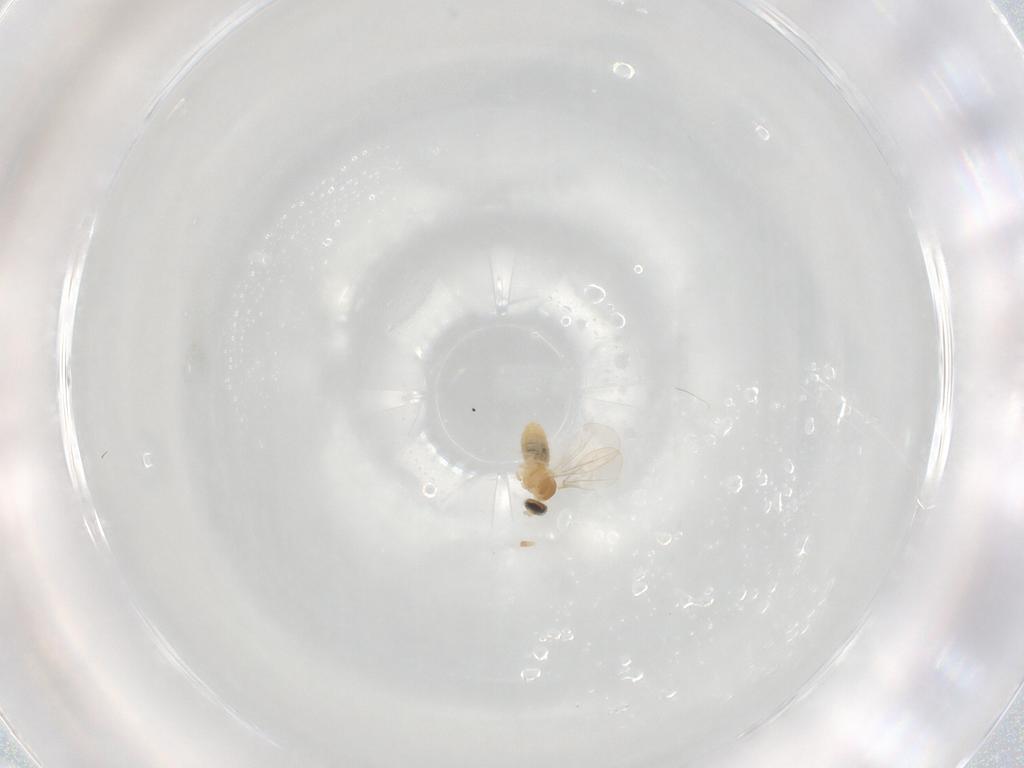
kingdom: Animalia
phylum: Arthropoda
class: Insecta
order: Diptera
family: Cecidomyiidae
